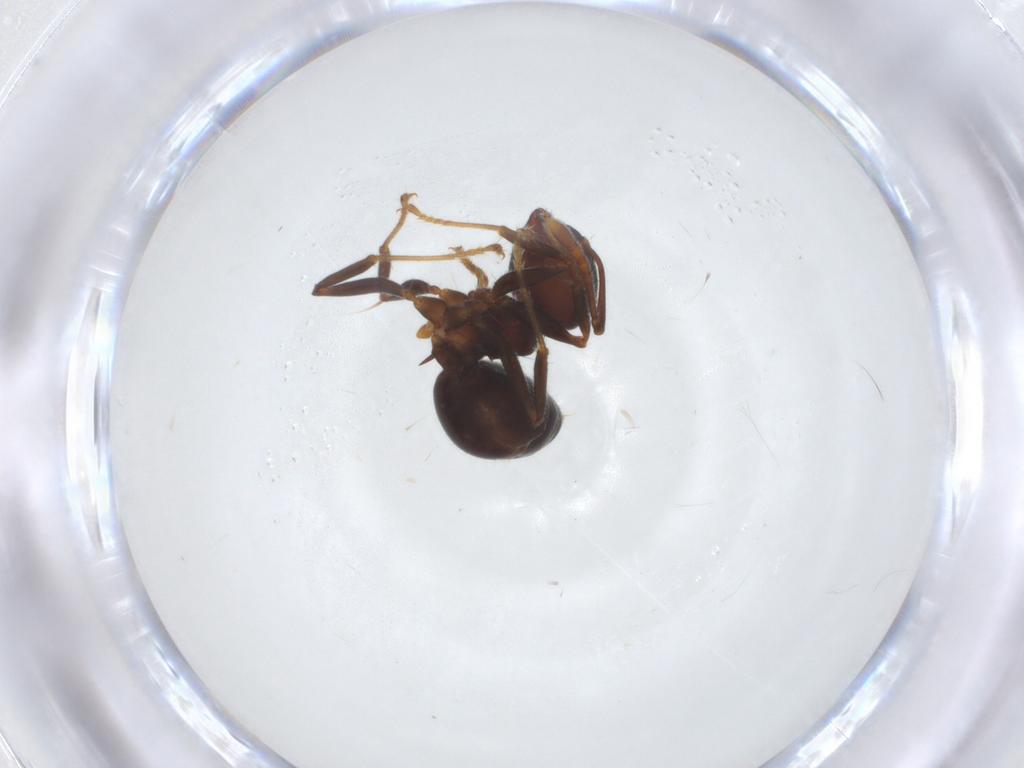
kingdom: Animalia
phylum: Arthropoda
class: Insecta
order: Hymenoptera
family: Formicidae
